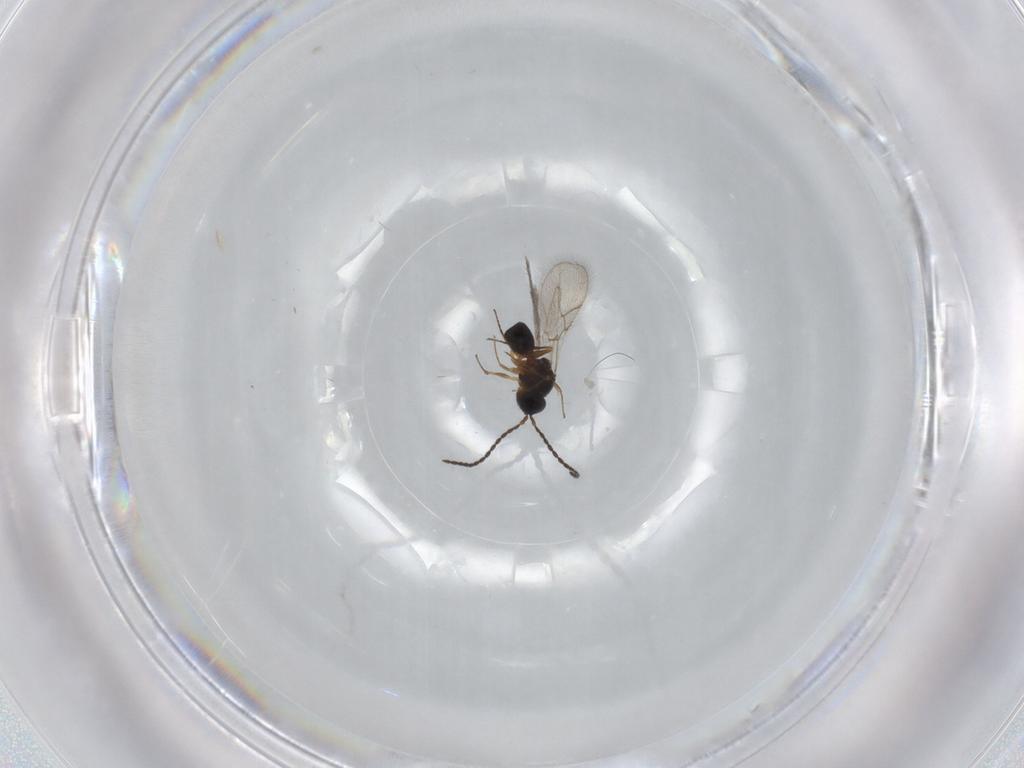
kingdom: Animalia
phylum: Arthropoda
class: Insecta
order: Hymenoptera
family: Figitidae
